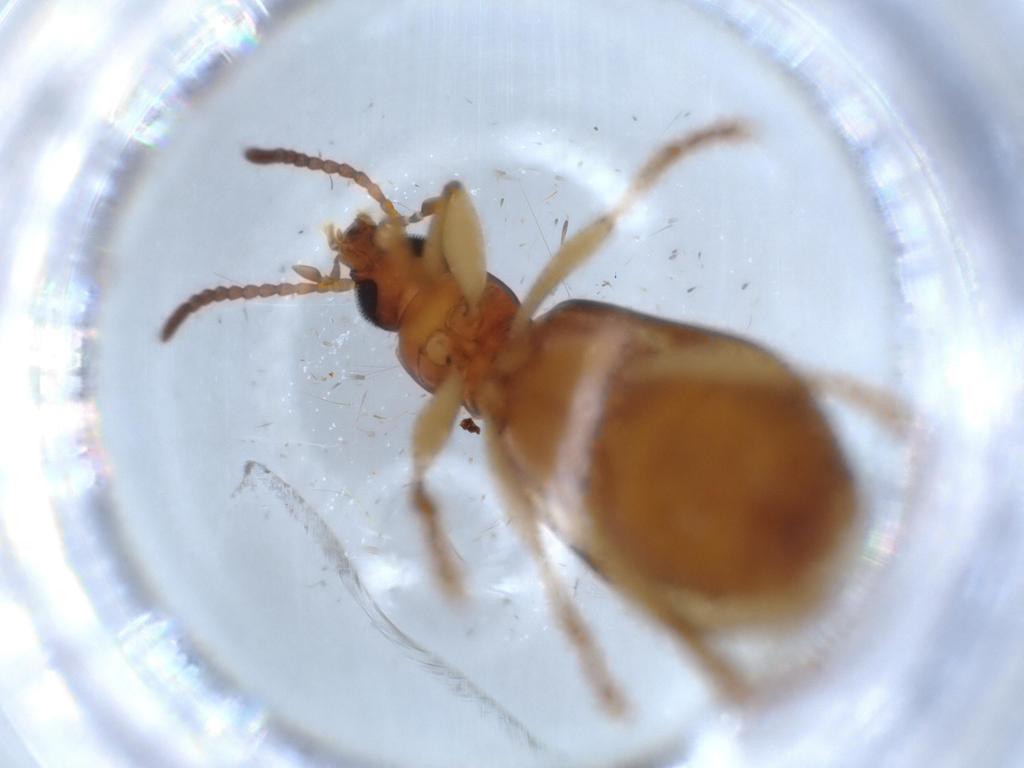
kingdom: Animalia
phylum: Arthropoda
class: Insecta
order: Coleoptera
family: Tenebrionidae
